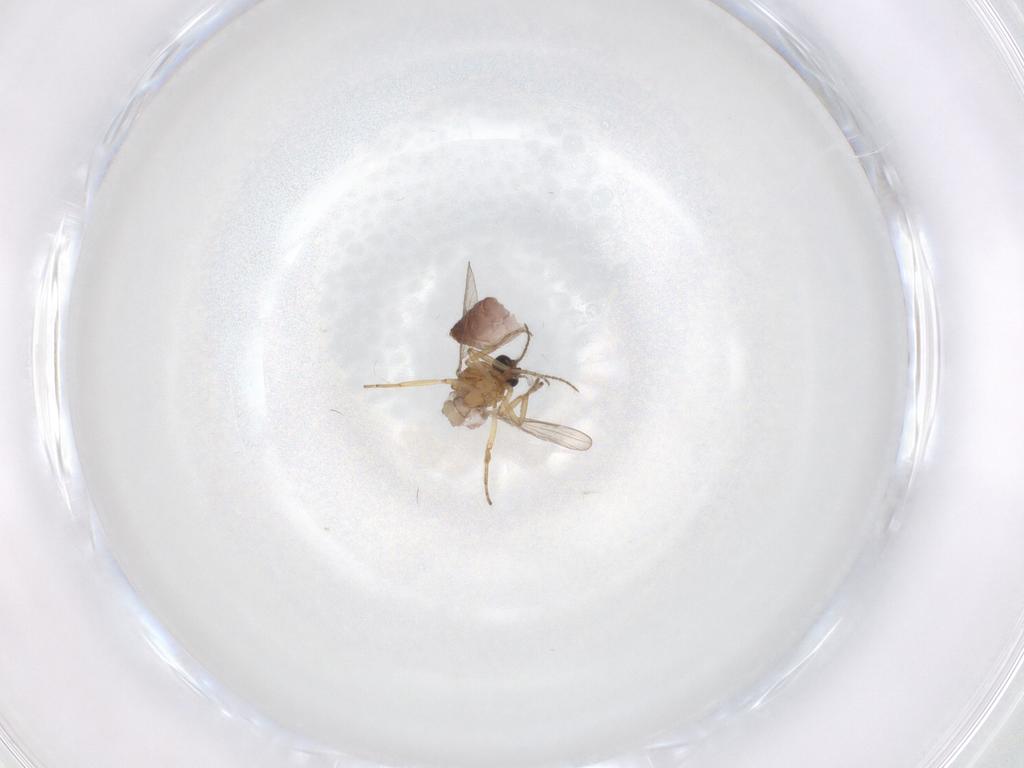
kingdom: Animalia
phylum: Arthropoda
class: Insecta
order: Diptera
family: Ceratopogonidae
